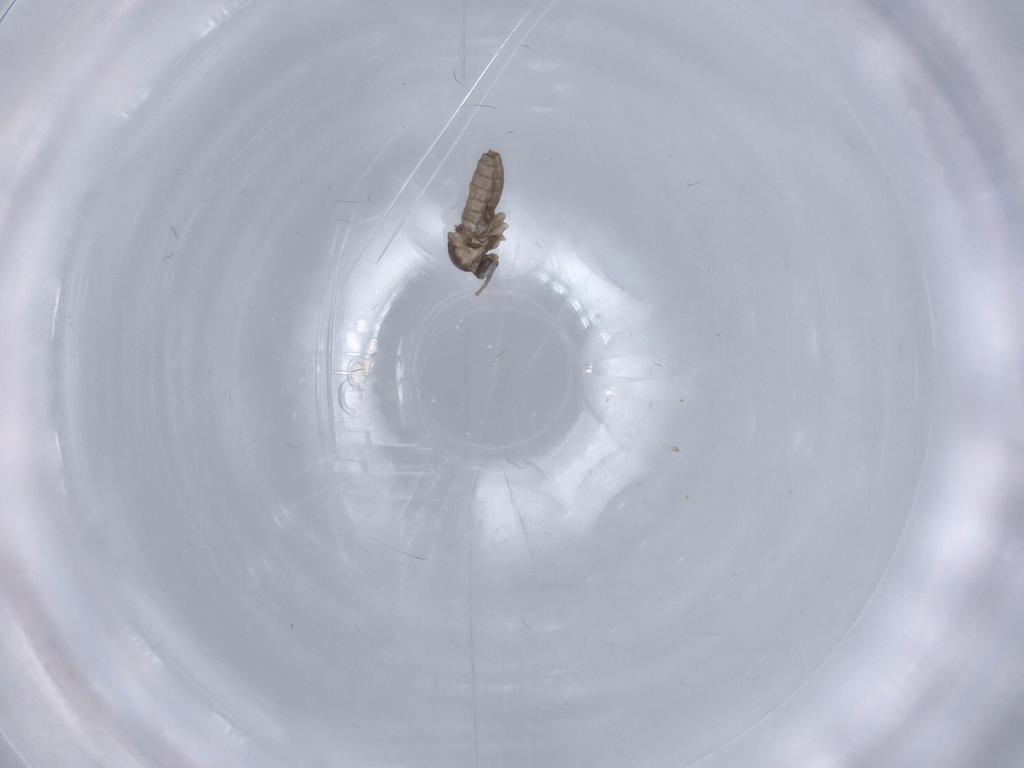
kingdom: Animalia
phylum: Arthropoda
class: Insecta
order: Diptera
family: Cecidomyiidae
